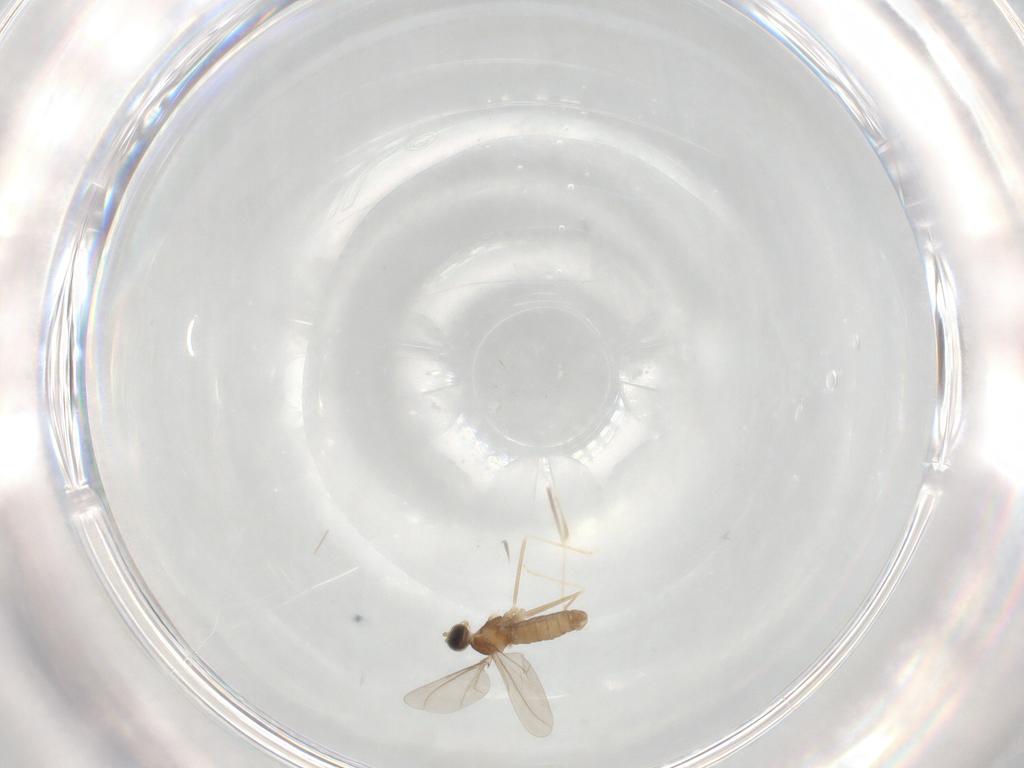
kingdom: Animalia
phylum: Arthropoda
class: Insecta
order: Diptera
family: Cecidomyiidae
